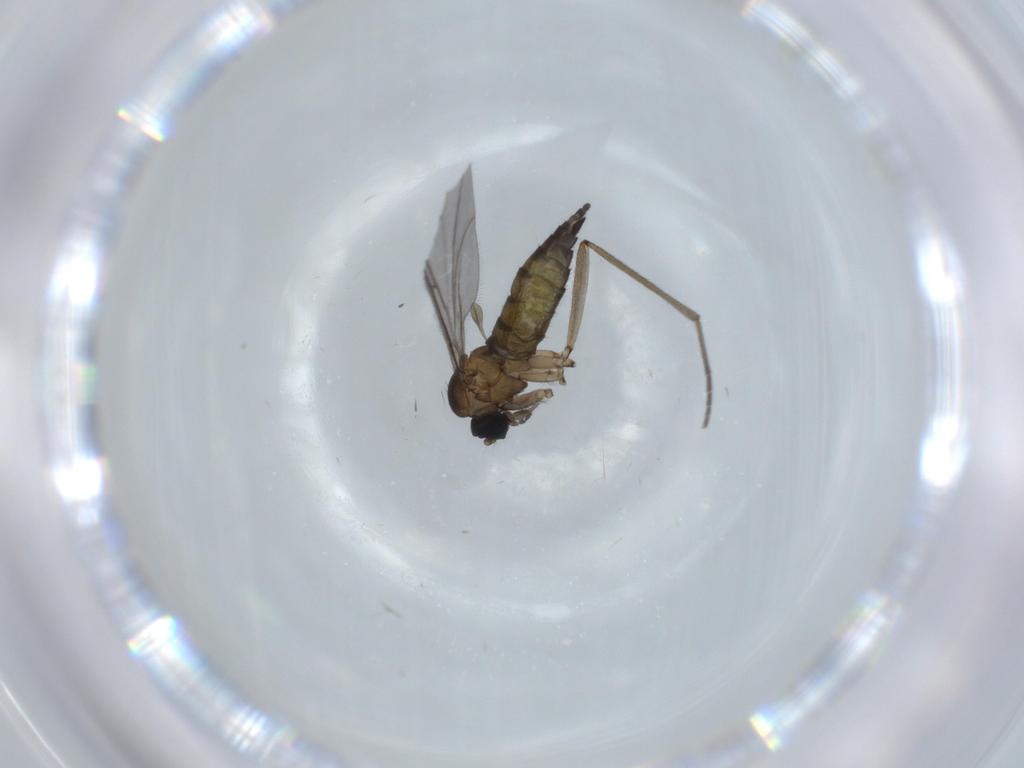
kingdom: Animalia
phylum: Arthropoda
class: Insecta
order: Diptera
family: Sciaridae
